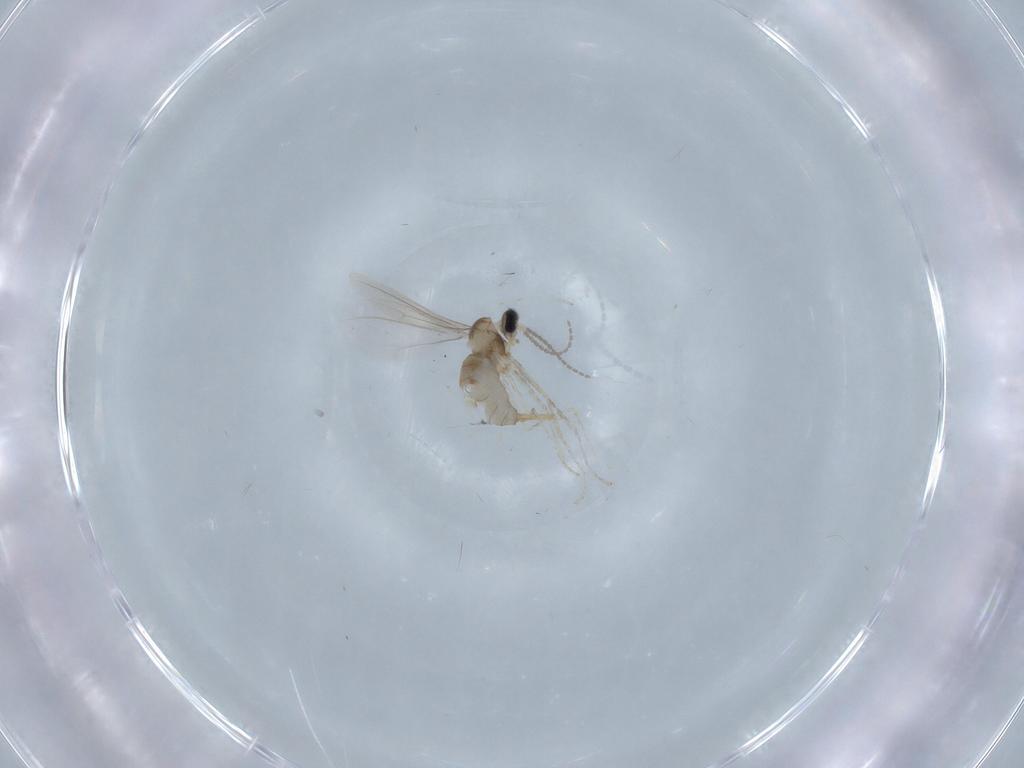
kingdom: Animalia
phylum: Arthropoda
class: Insecta
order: Diptera
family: Cecidomyiidae
